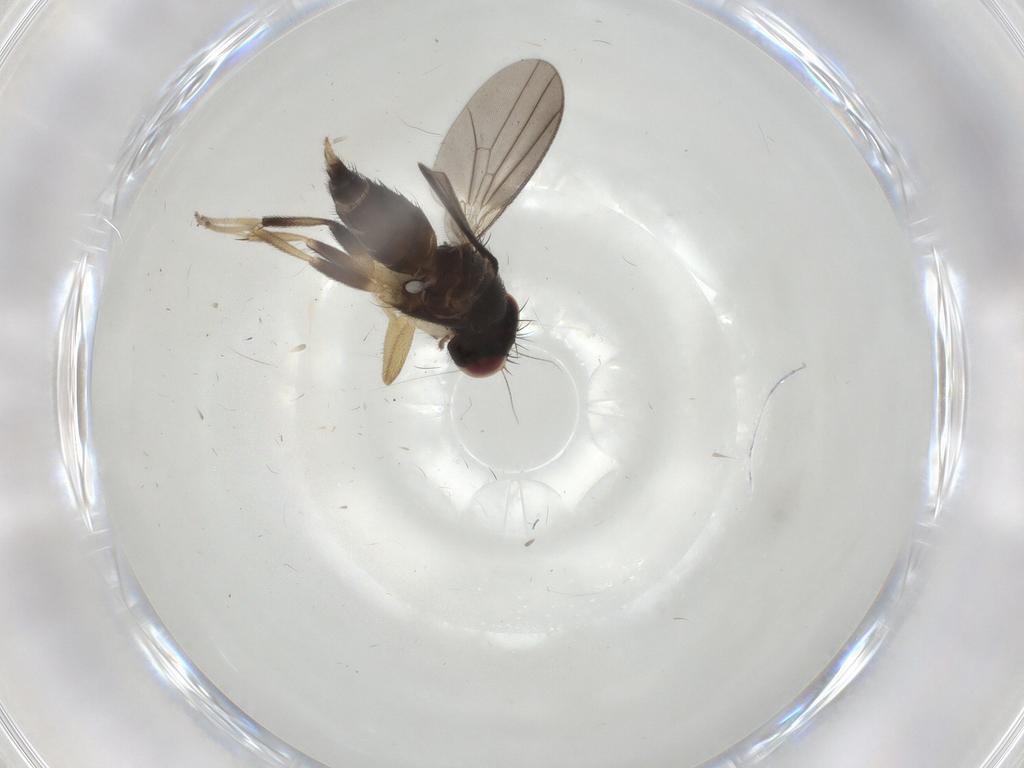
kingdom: Animalia
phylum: Arthropoda
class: Insecta
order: Diptera
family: Clusiidae
